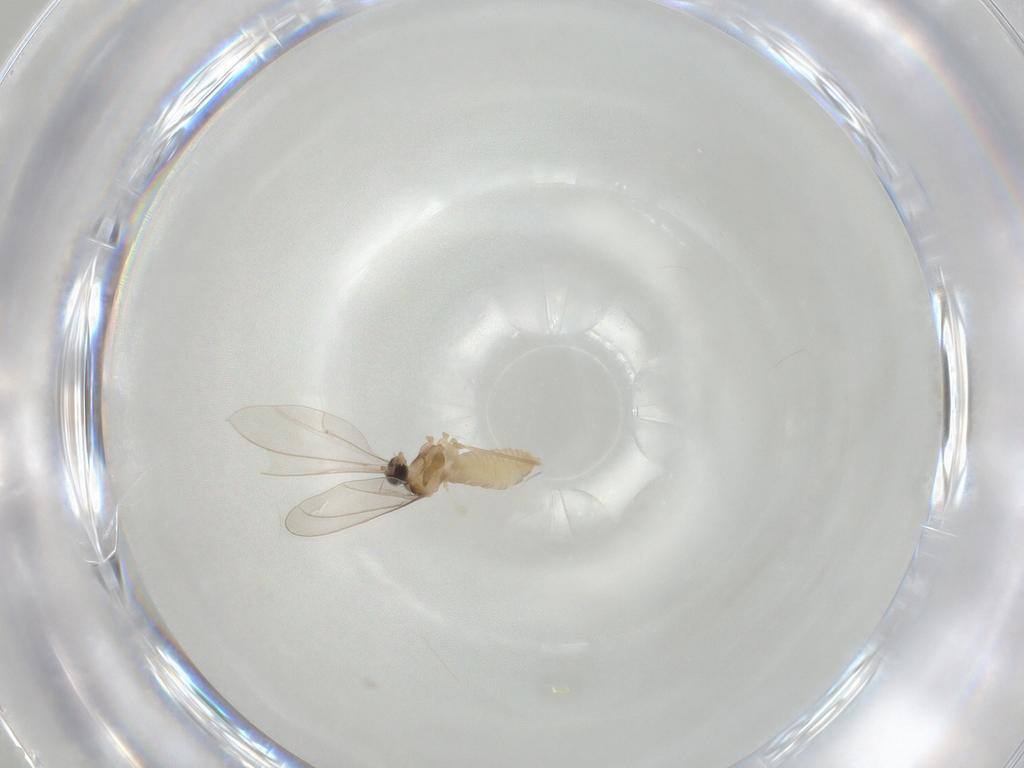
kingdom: Animalia
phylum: Arthropoda
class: Insecta
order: Diptera
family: Cecidomyiidae
